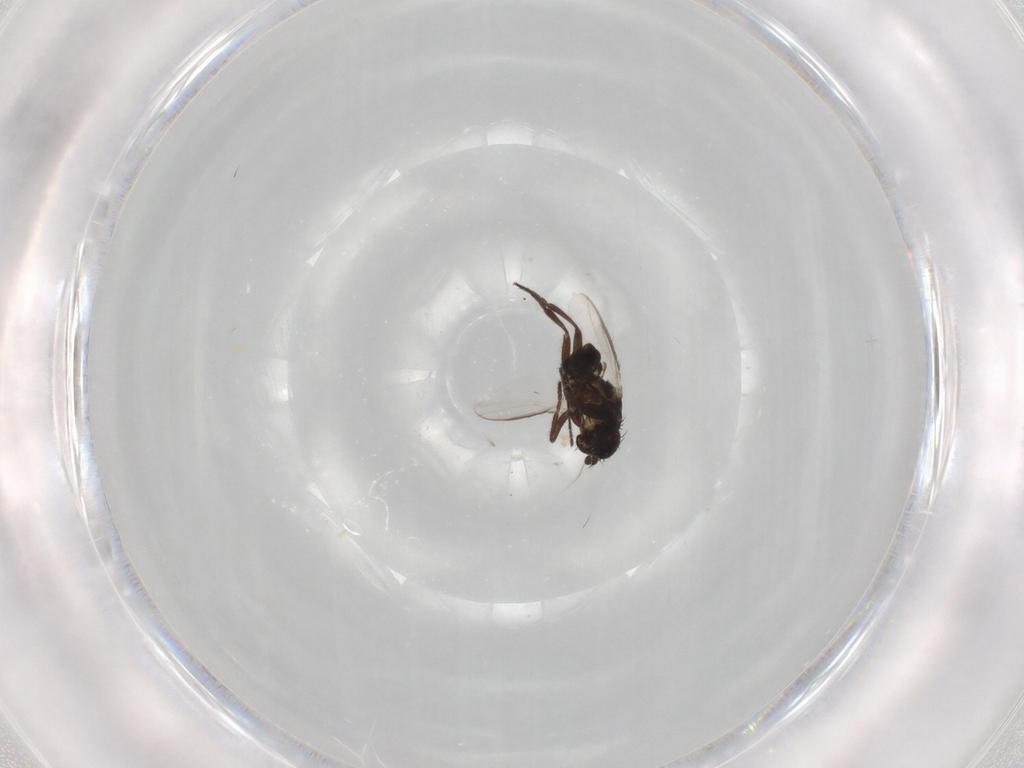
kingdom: Animalia
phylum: Arthropoda
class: Insecta
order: Diptera
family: Sphaeroceridae
